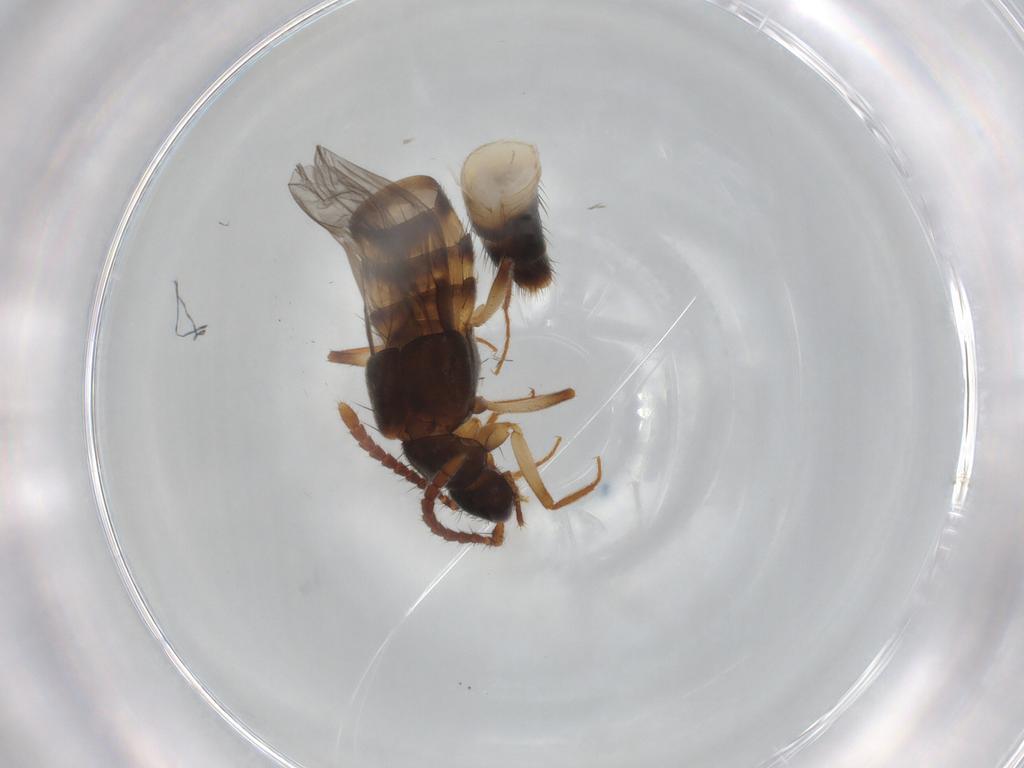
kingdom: Animalia
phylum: Arthropoda
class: Insecta
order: Coleoptera
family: Staphylinidae
